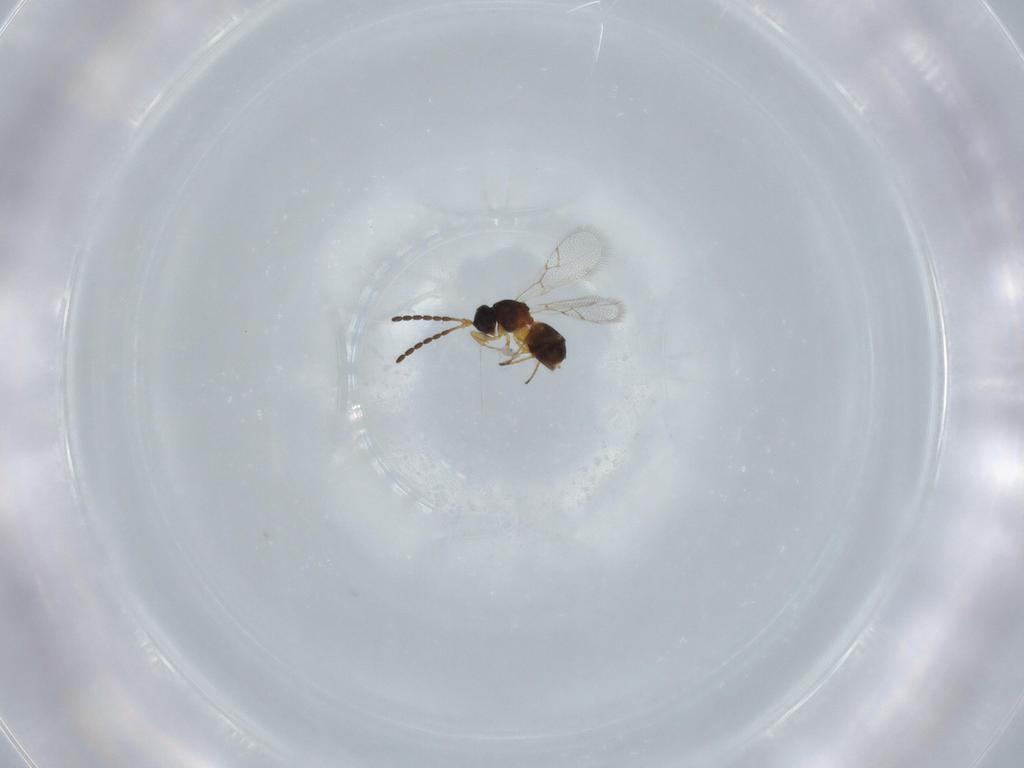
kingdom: Animalia
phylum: Arthropoda
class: Insecta
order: Hymenoptera
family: Figitidae
